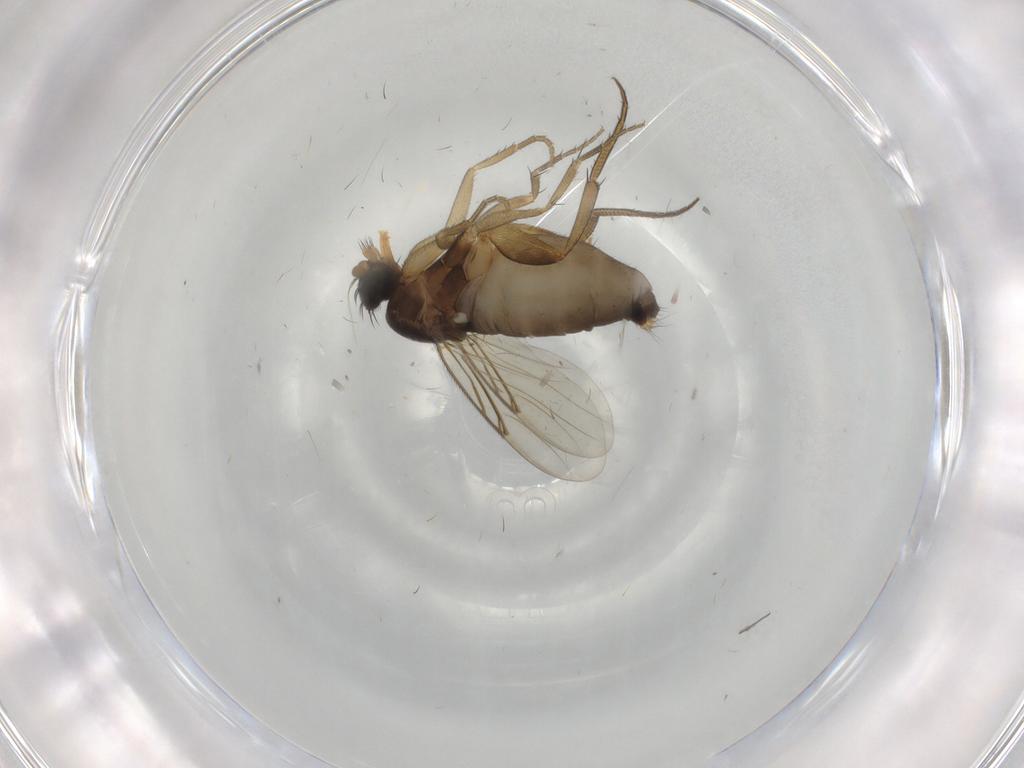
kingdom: Animalia
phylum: Arthropoda
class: Insecta
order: Diptera
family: Phoridae
